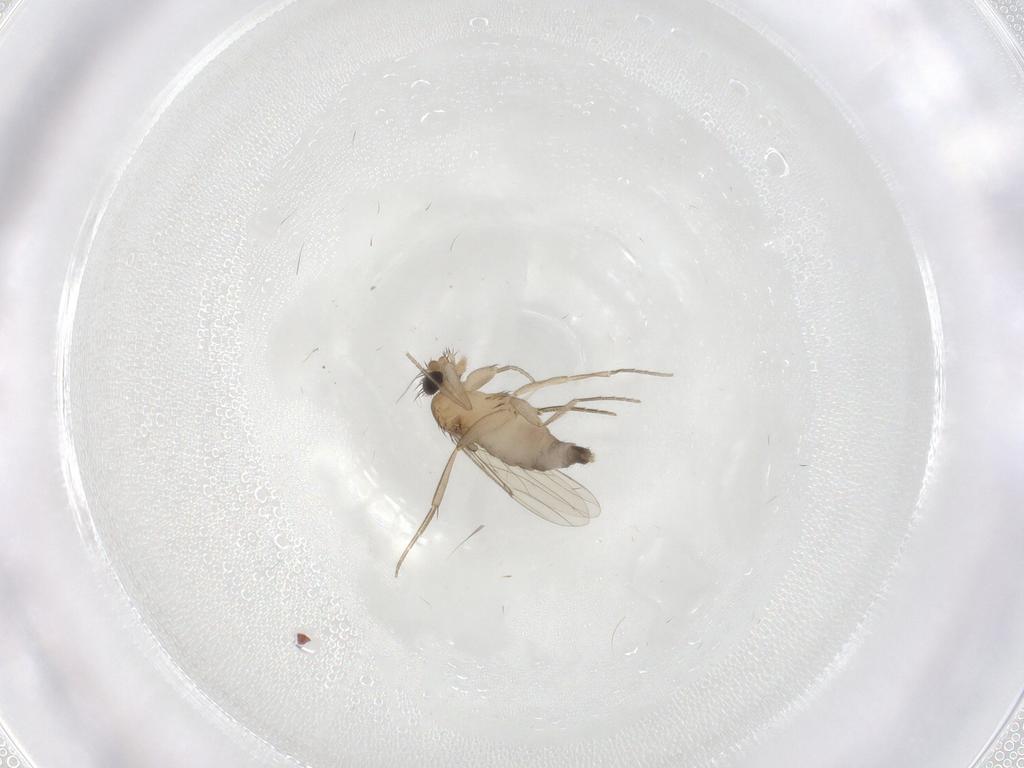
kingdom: Animalia
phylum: Arthropoda
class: Insecta
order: Diptera
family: Phoridae
